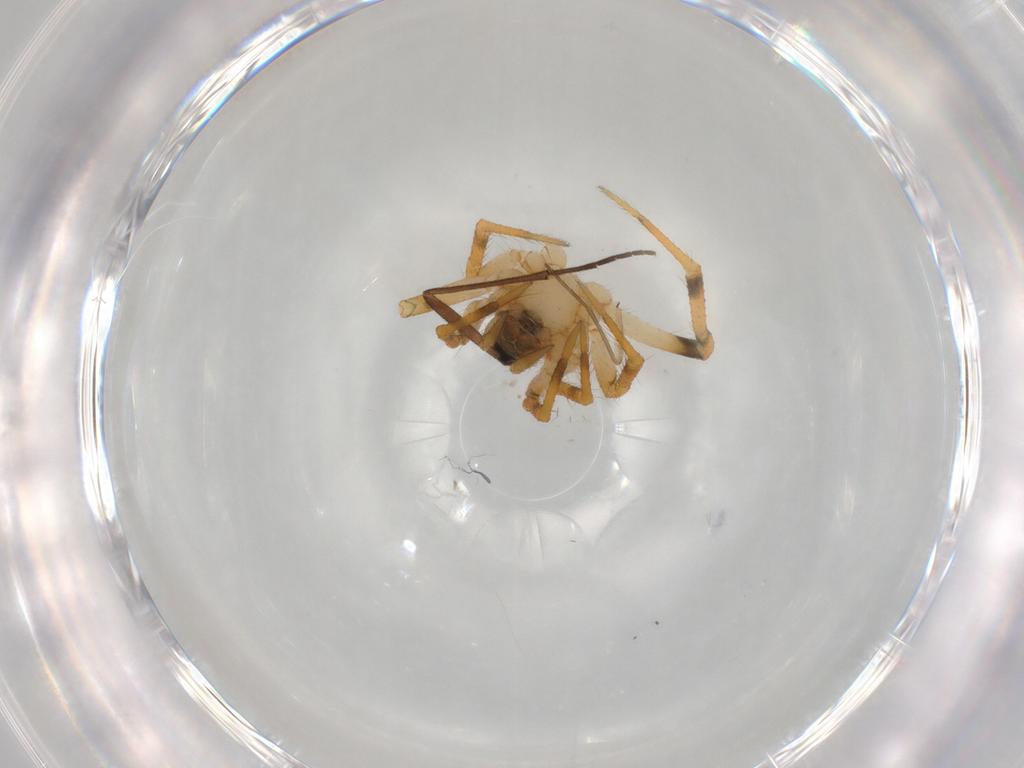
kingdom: Animalia
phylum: Arthropoda
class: Arachnida
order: Araneae
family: Theridiidae
